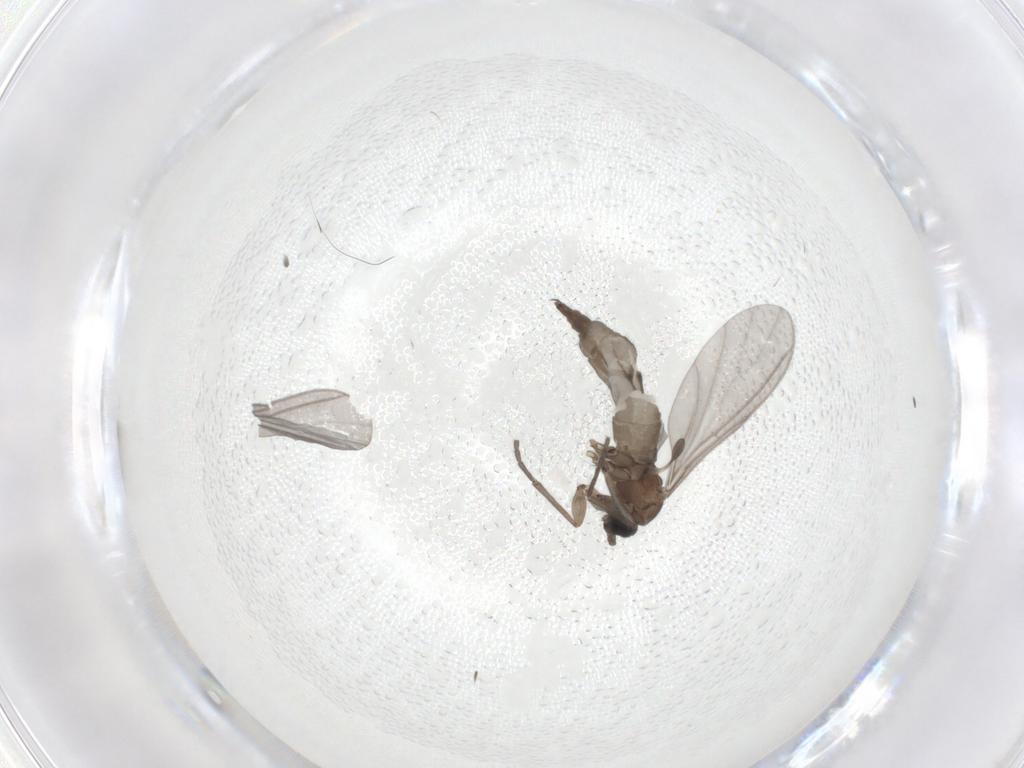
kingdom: Animalia
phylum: Arthropoda
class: Insecta
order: Diptera
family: Sciaridae
